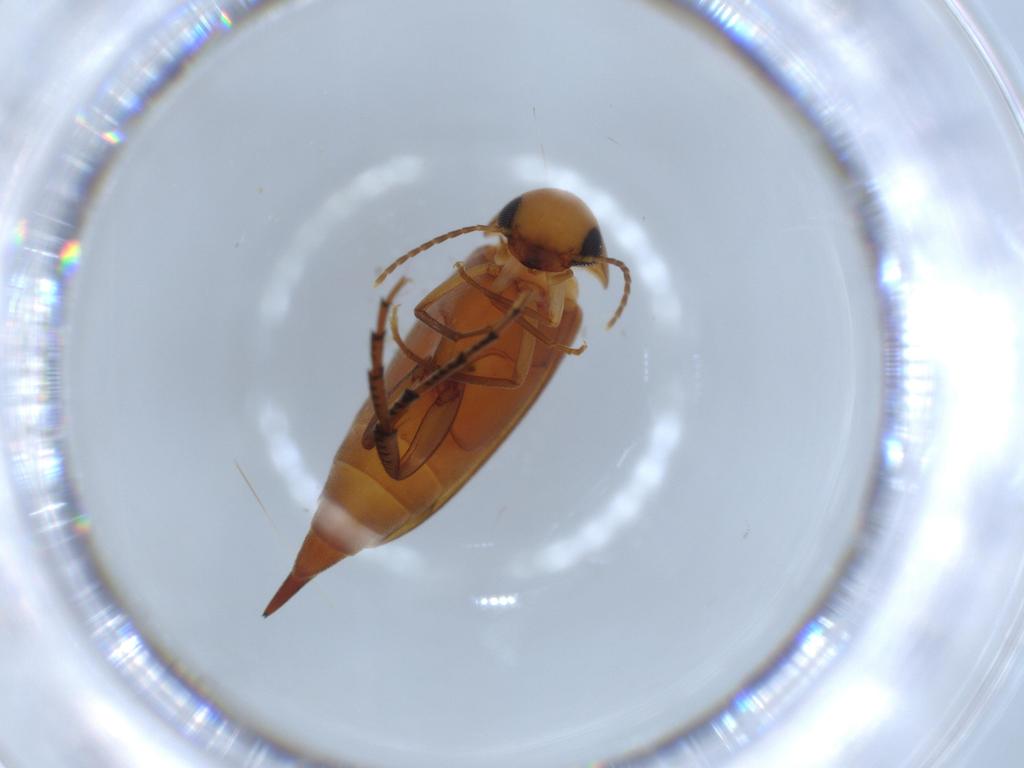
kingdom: Animalia
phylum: Arthropoda
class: Insecta
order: Coleoptera
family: Mordellidae
